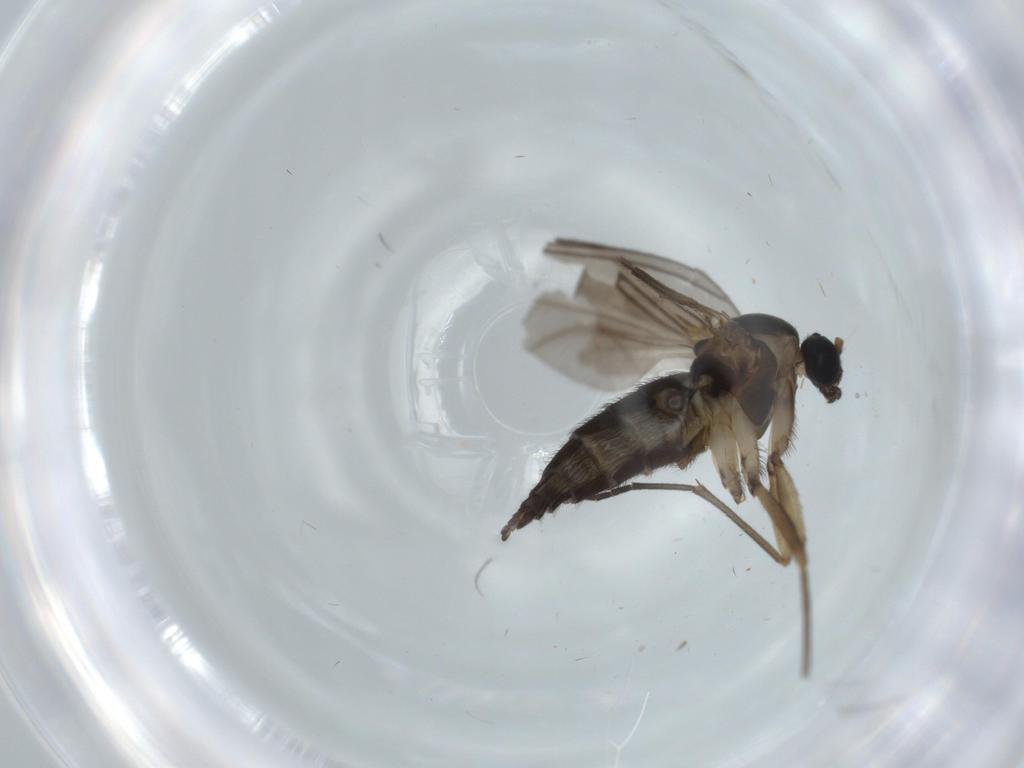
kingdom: Animalia
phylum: Arthropoda
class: Insecta
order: Diptera
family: Sciaridae
